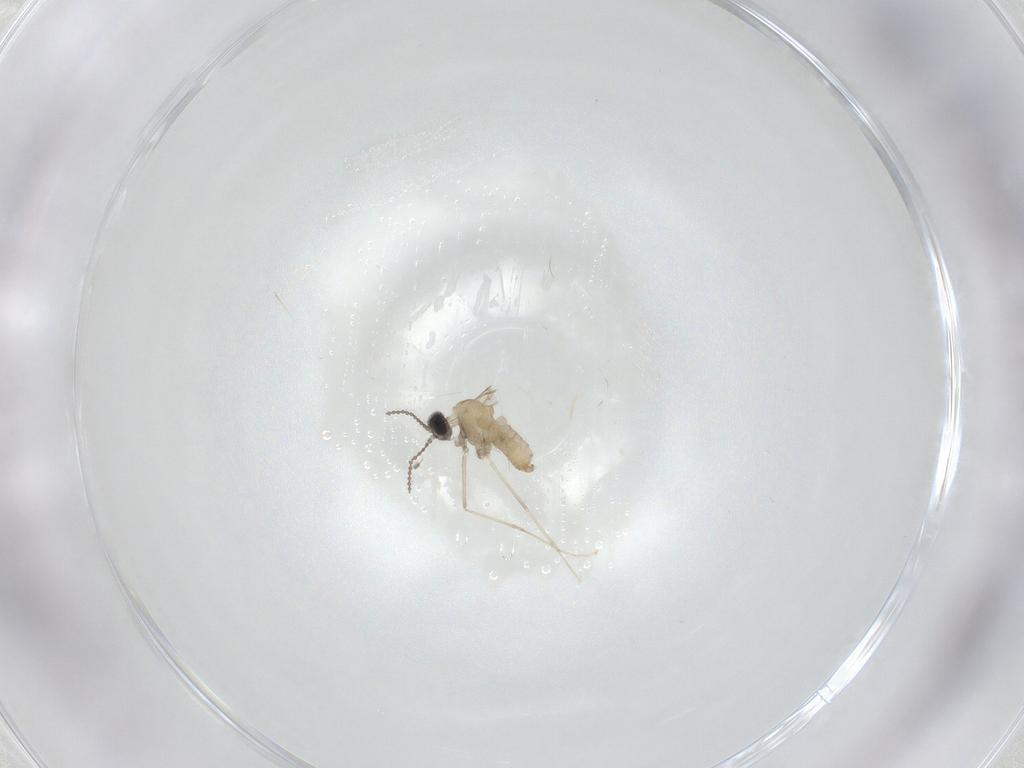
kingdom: Animalia
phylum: Arthropoda
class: Insecta
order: Diptera
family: Cecidomyiidae
